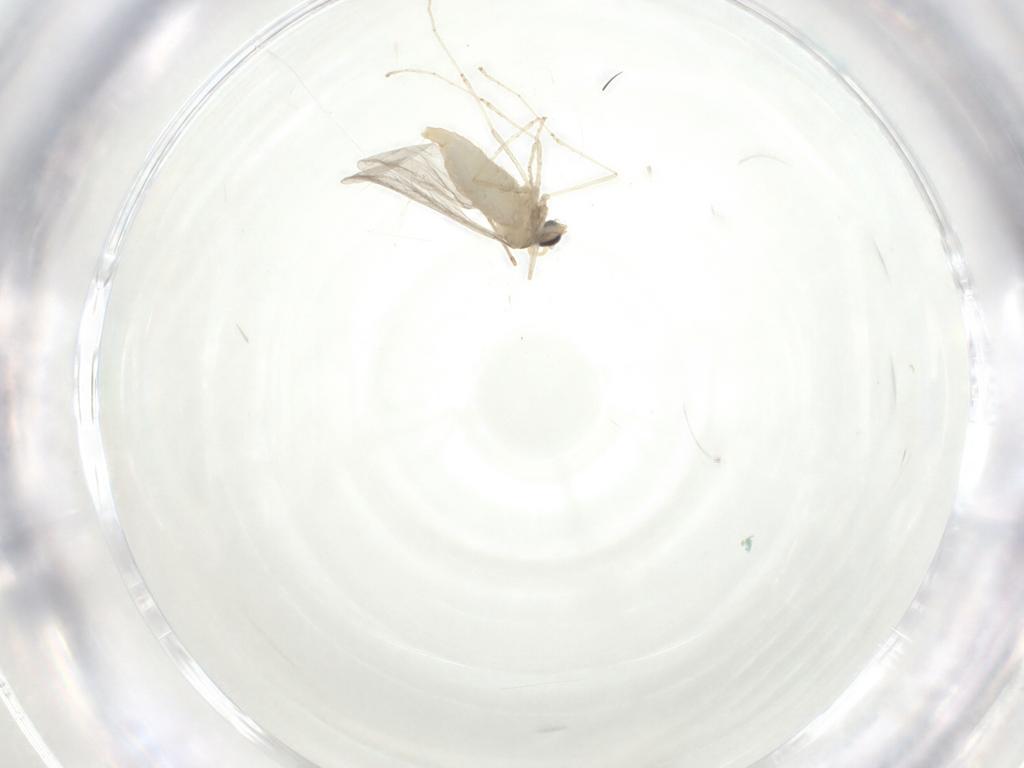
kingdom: Animalia
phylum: Arthropoda
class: Insecta
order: Diptera
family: Cecidomyiidae
